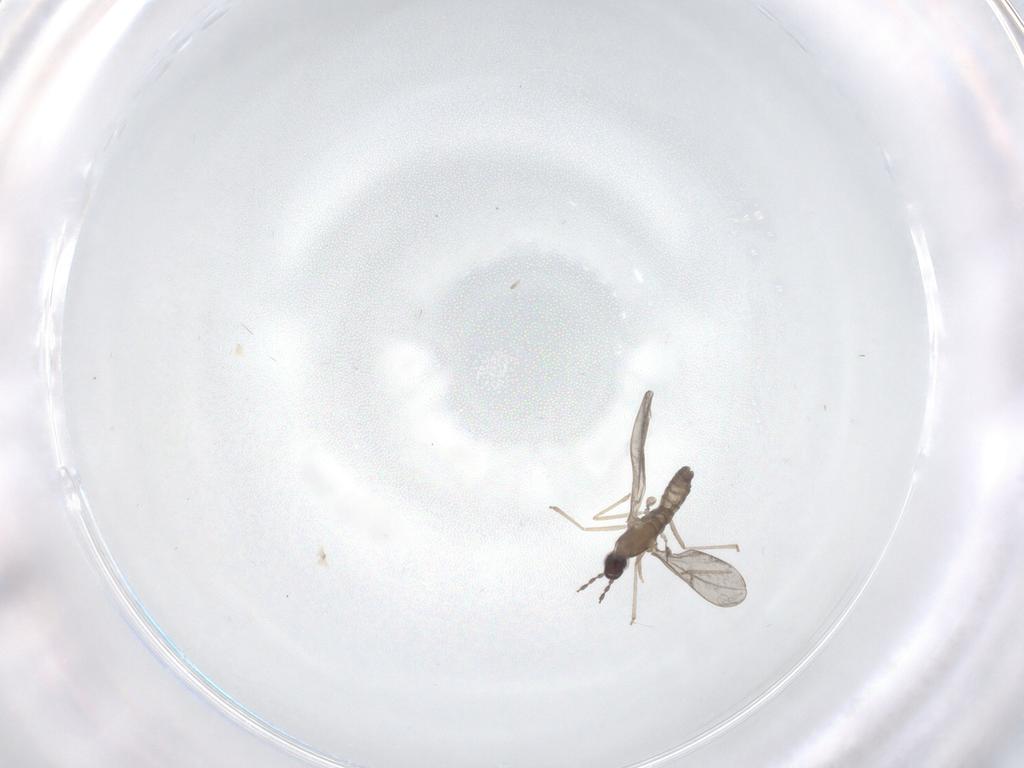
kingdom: Animalia
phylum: Arthropoda
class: Insecta
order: Diptera
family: Cecidomyiidae
